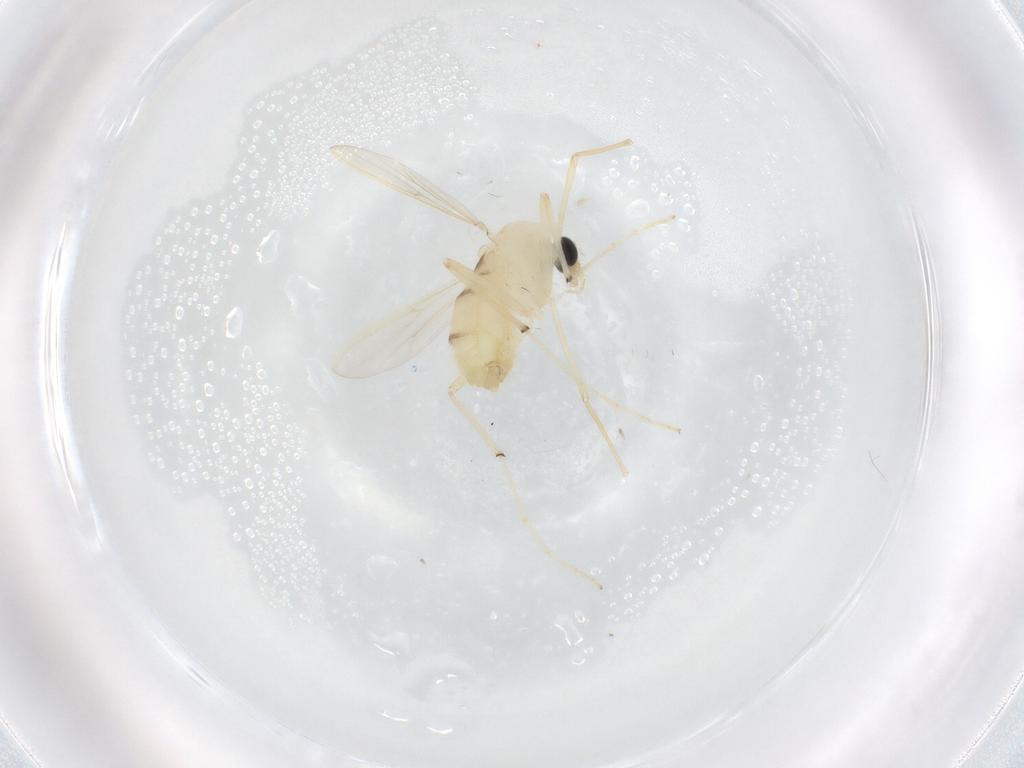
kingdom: Animalia
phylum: Arthropoda
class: Insecta
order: Diptera
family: Chironomidae
